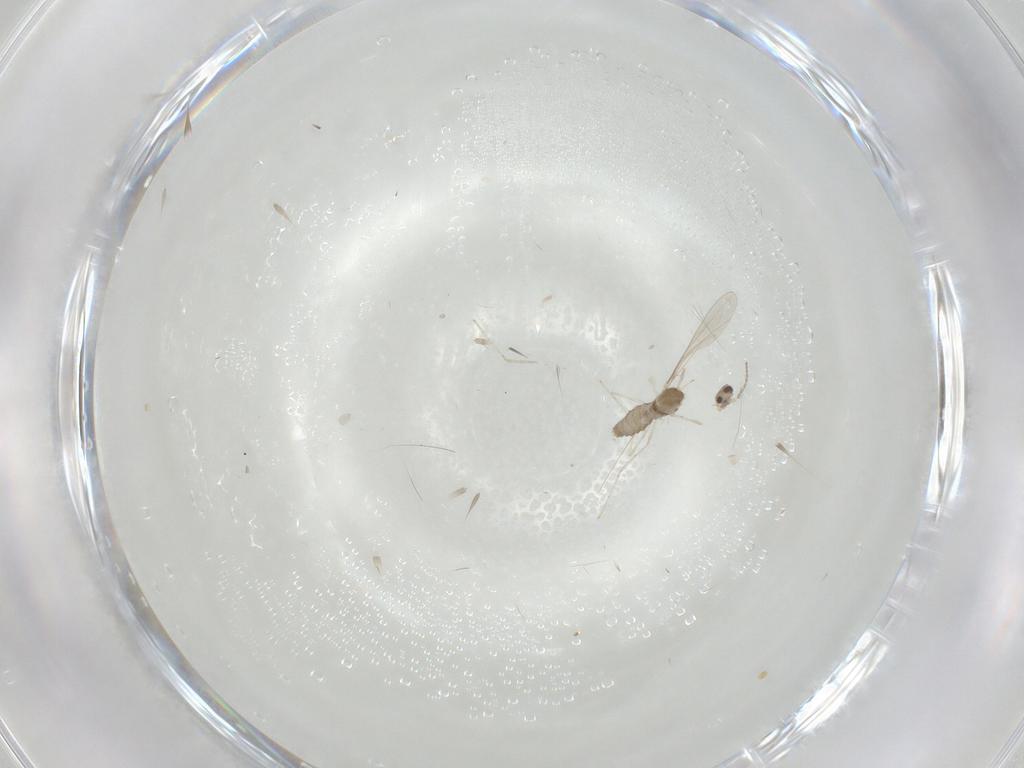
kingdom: Animalia
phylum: Arthropoda
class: Insecta
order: Diptera
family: Cecidomyiidae
